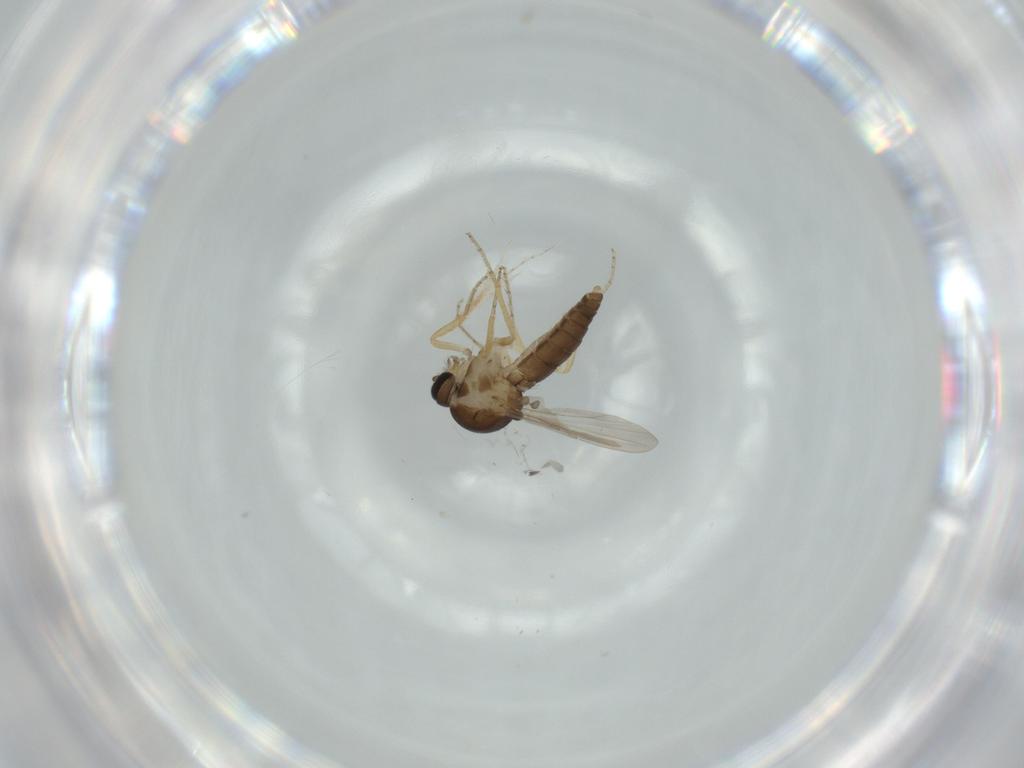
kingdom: Animalia
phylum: Arthropoda
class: Insecta
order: Diptera
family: Ceratopogonidae
